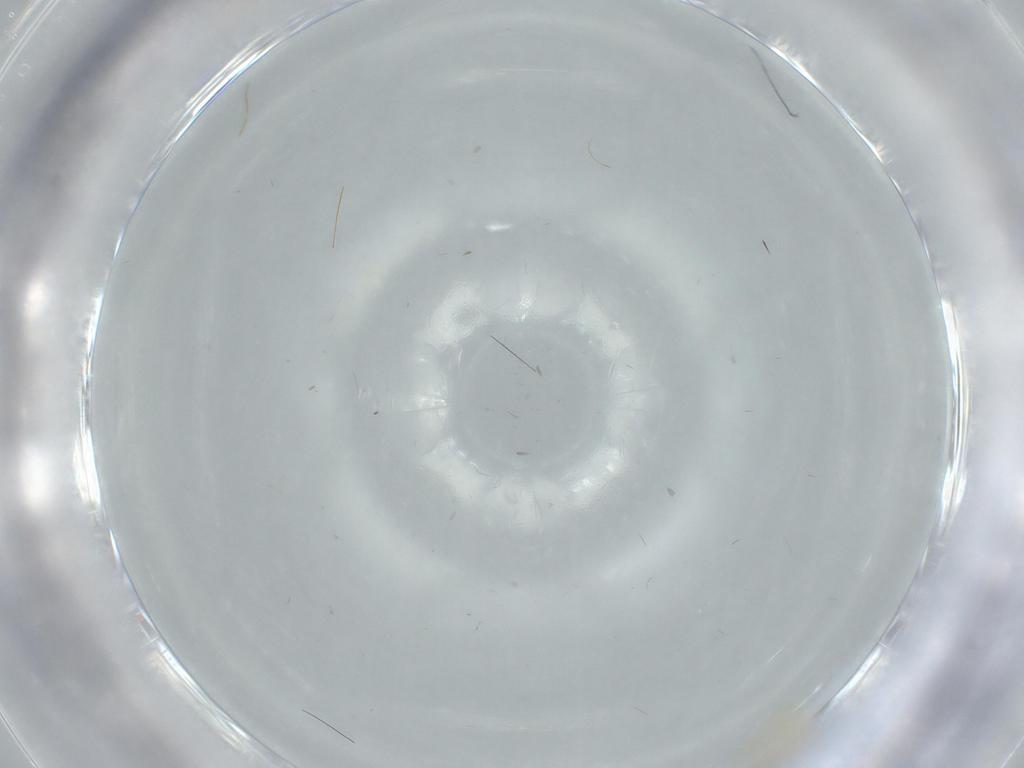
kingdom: Animalia
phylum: Arthropoda
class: Insecta
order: Diptera
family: Phoridae
